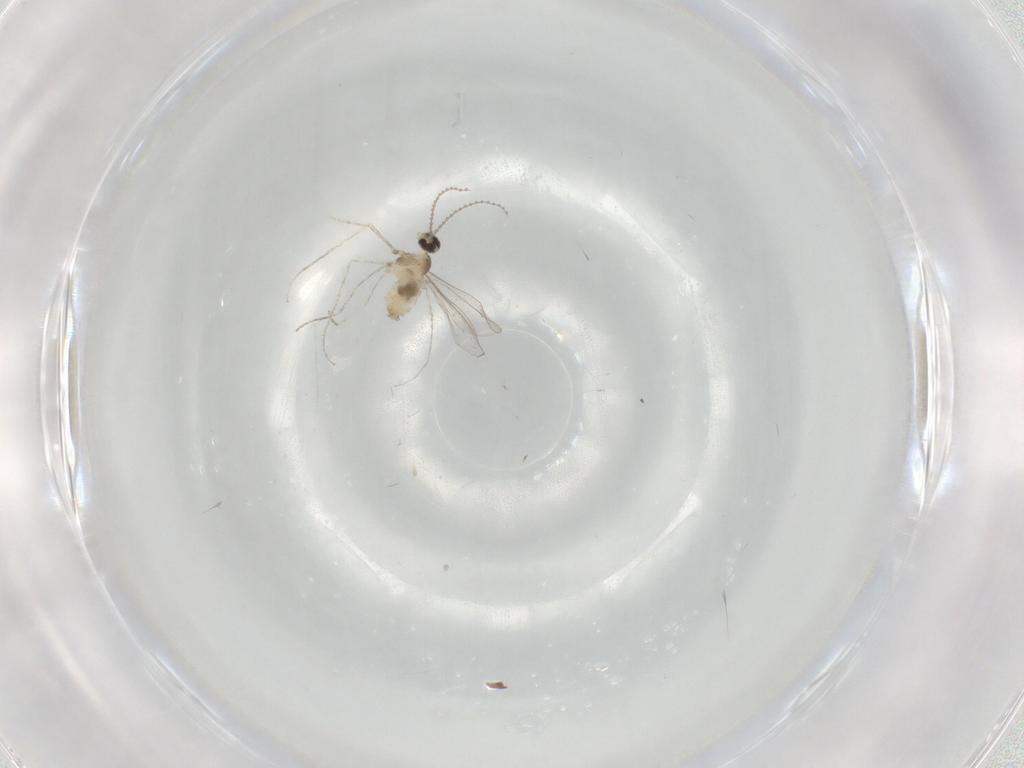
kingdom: Animalia
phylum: Arthropoda
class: Insecta
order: Diptera
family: Cecidomyiidae
